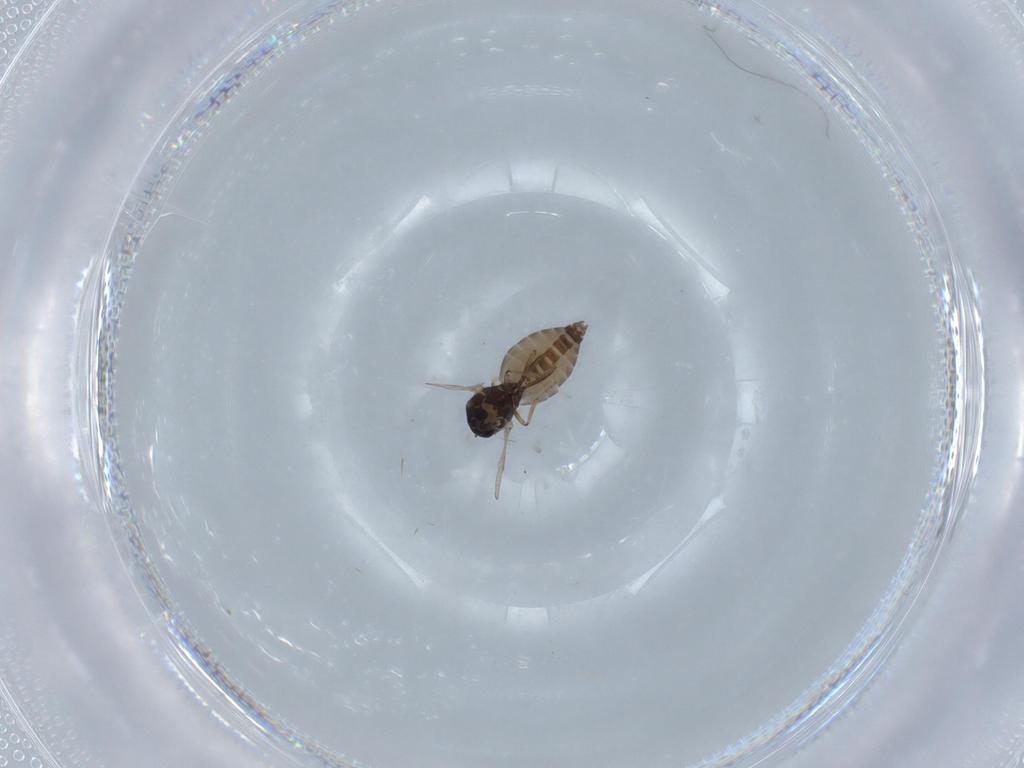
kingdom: Animalia
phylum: Arthropoda
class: Insecta
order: Diptera
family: Ceratopogonidae
